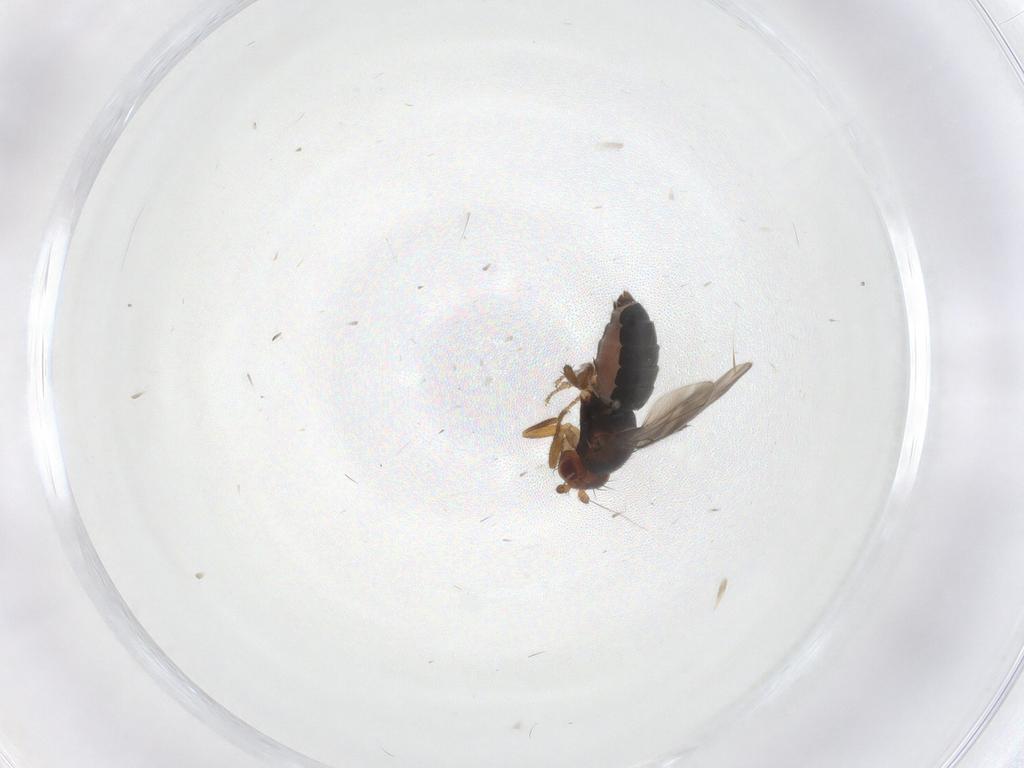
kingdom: Animalia
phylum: Arthropoda
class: Insecta
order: Diptera
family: Sphaeroceridae
